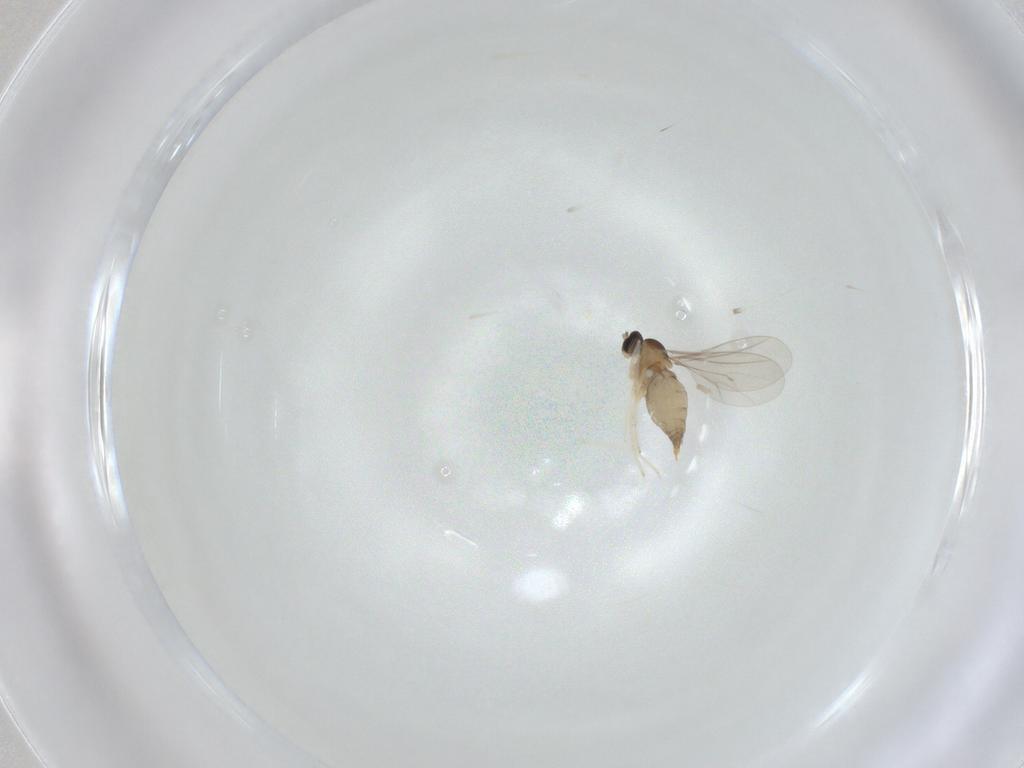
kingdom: Animalia
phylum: Arthropoda
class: Insecta
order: Diptera
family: Cecidomyiidae
